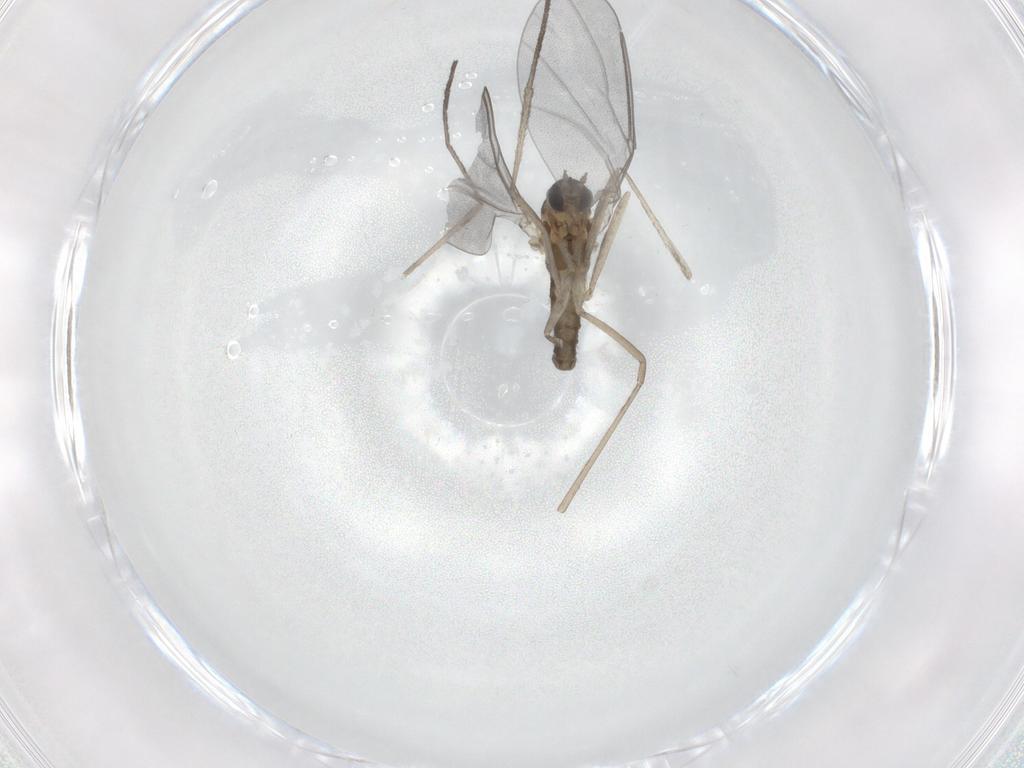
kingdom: Animalia
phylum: Arthropoda
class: Insecta
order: Diptera
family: Cecidomyiidae
